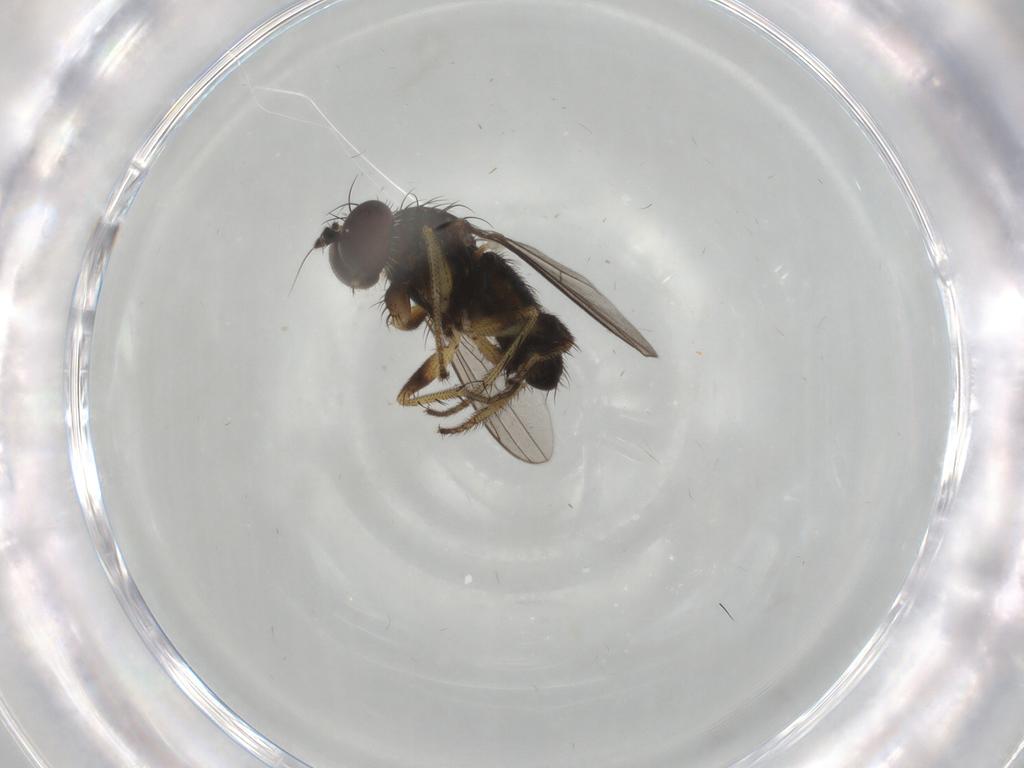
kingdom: Animalia
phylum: Arthropoda
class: Insecta
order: Diptera
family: Dolichopodidae
